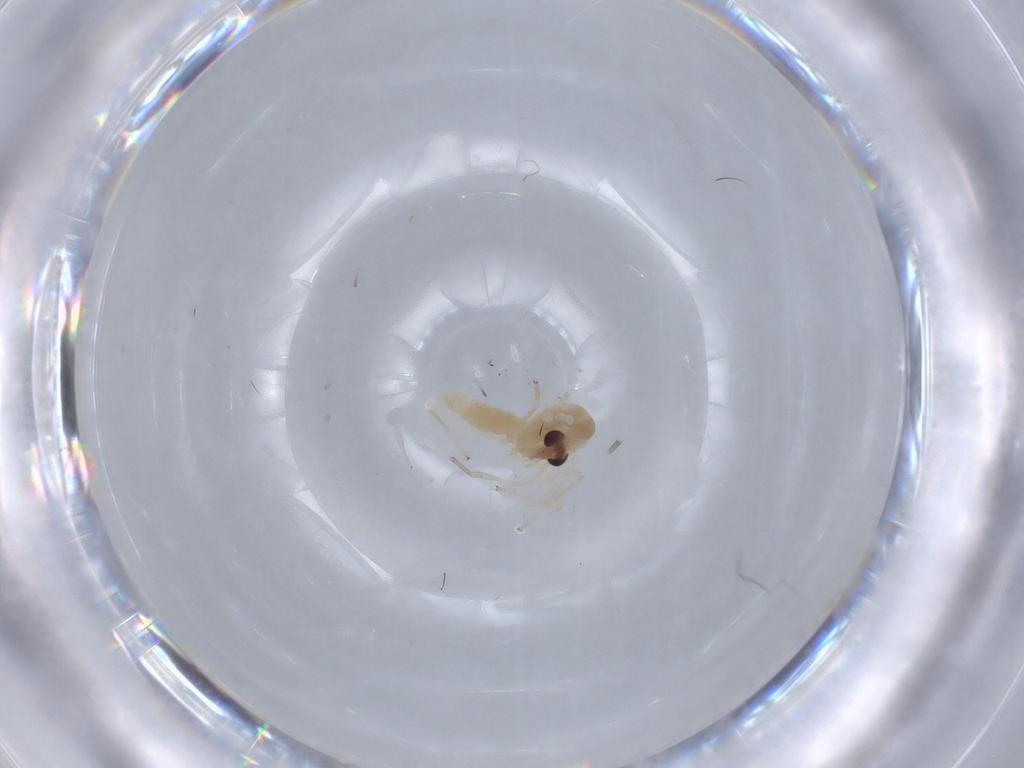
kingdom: Animalia
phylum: Arthropoda
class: Insecta
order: Diptera
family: Chironomidae
